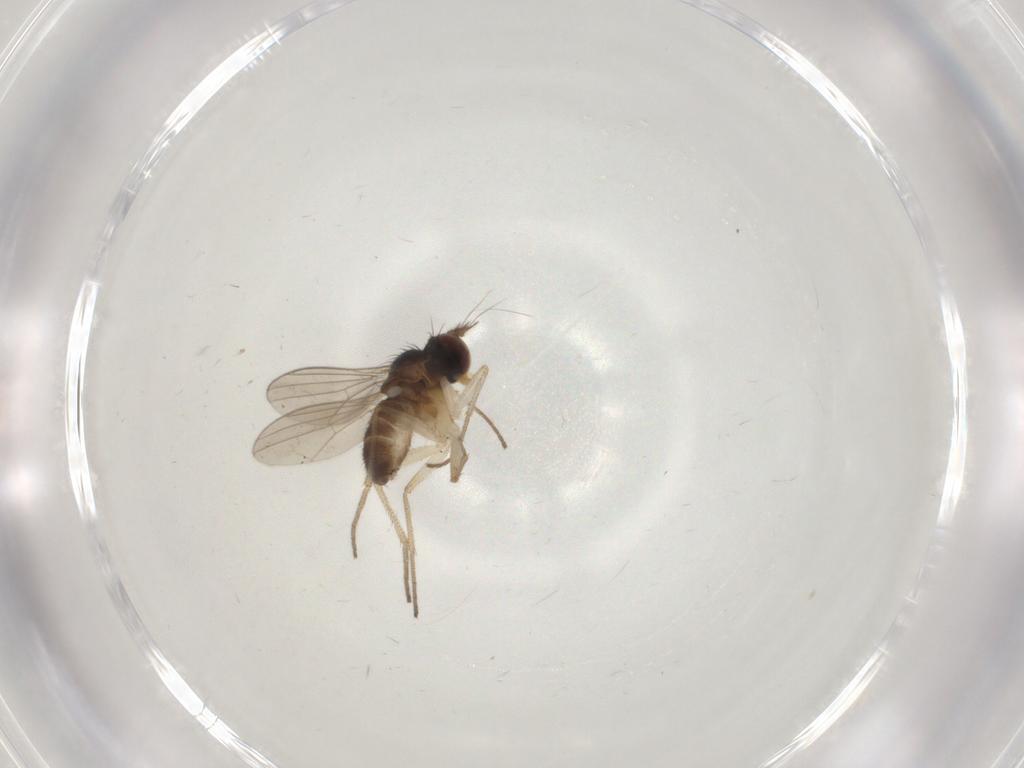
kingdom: Animalia
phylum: Arthropoda
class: Insecta
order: Diptera
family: Dolichopodidae
